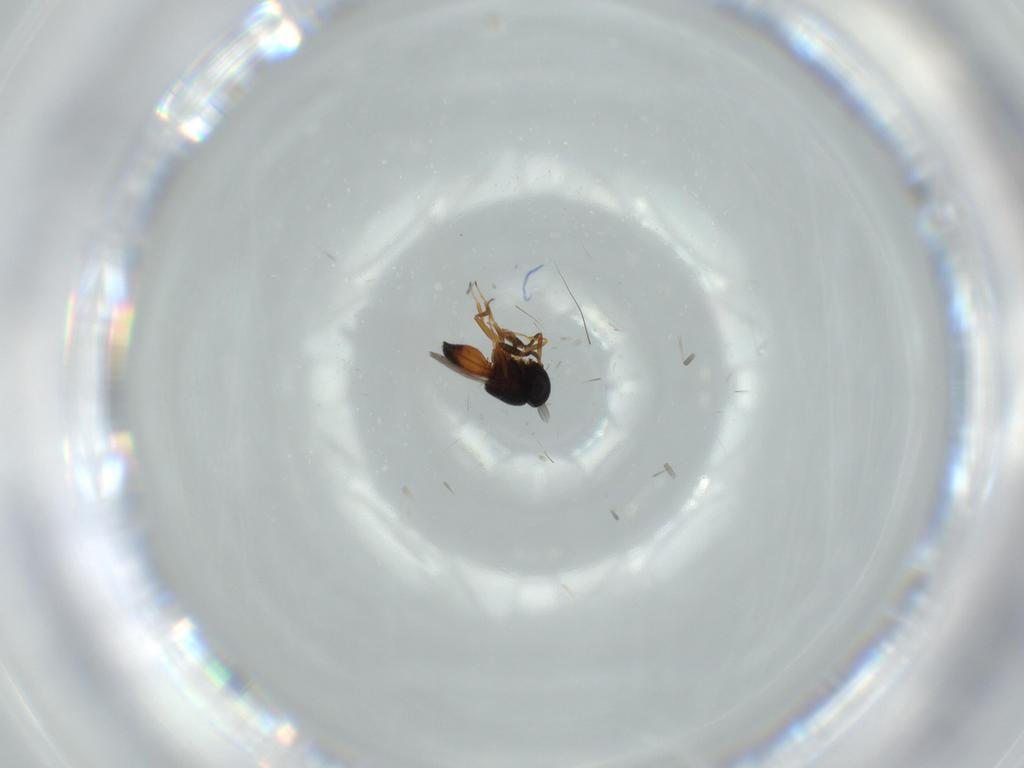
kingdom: Animalia
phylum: Arthropoda
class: Insecta
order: Hymenoptera
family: Scelionidae
